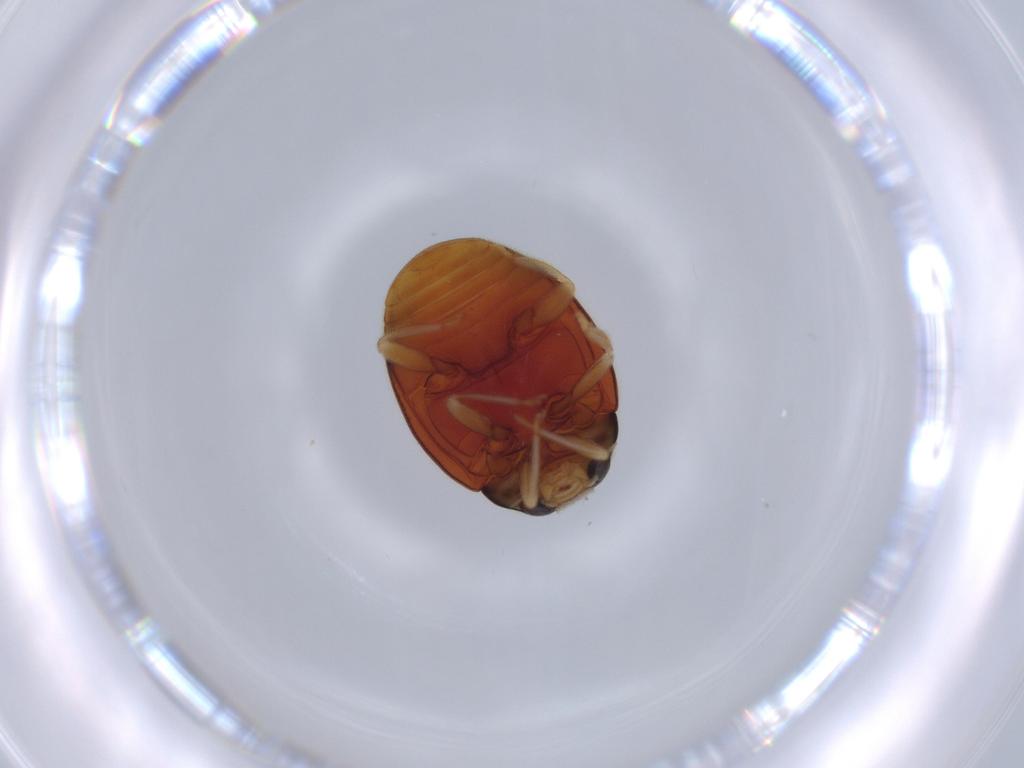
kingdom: Animalia
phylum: Arthropoda
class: Insecta
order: Coleoptera
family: Coccinellidae
